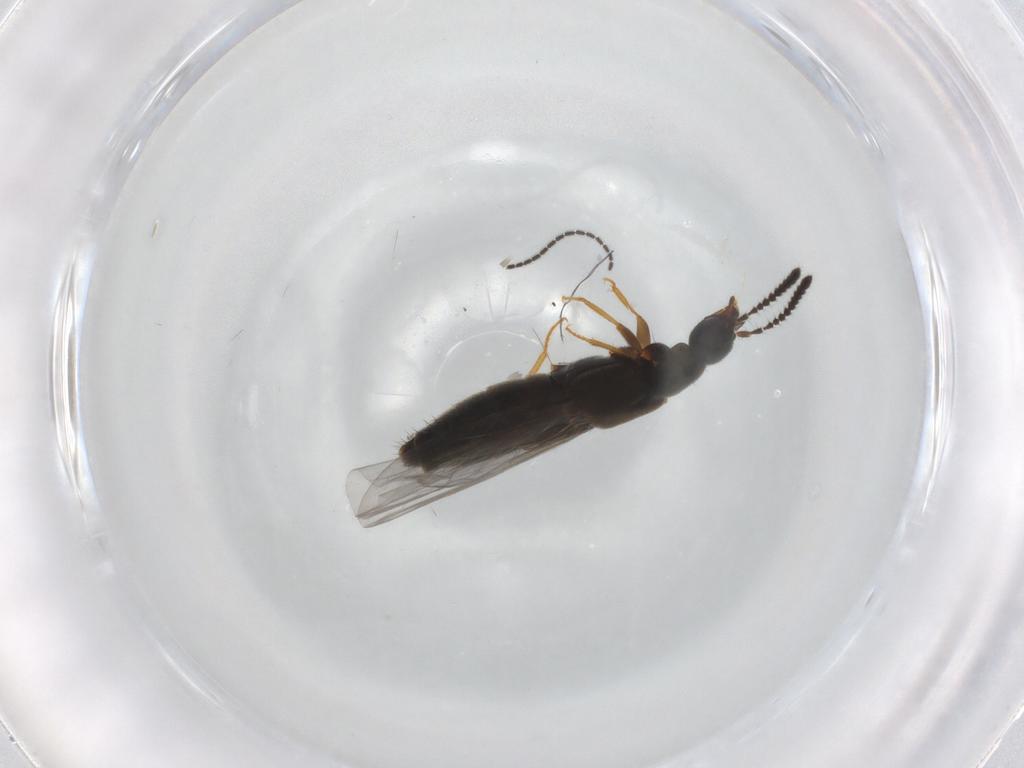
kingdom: Animalia
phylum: Arthropoda
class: Insecta
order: Coleoptera
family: Staphylinidae
